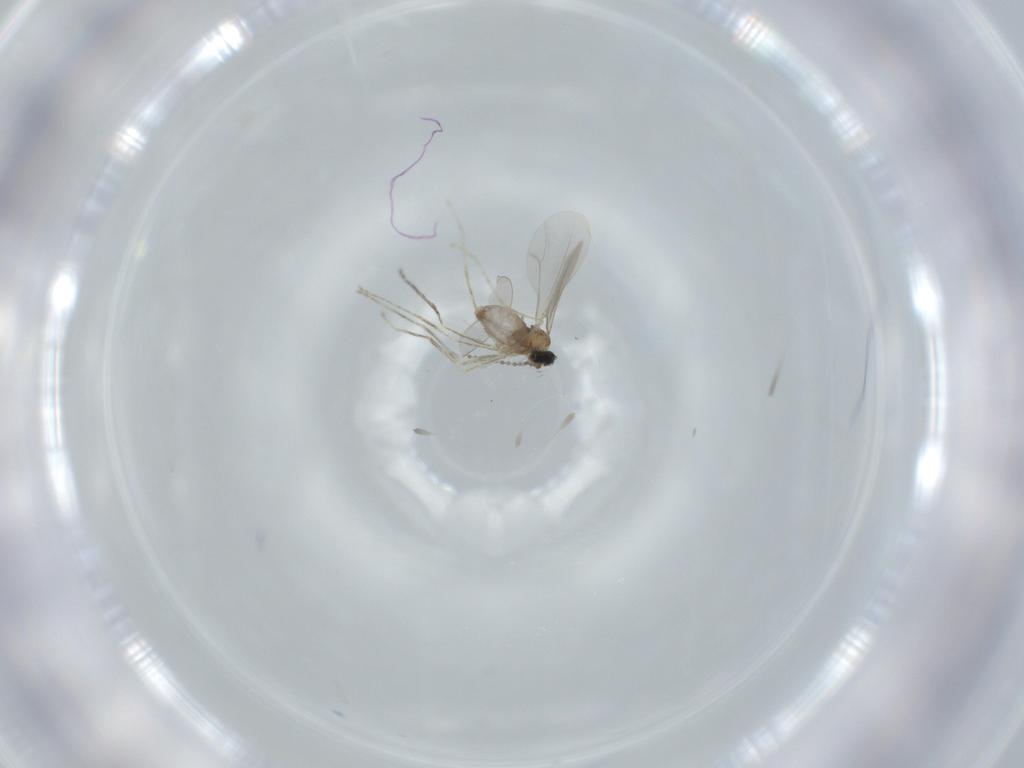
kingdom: Animalia
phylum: Arthropoda
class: Insecta
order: Diptera
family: Cecidomyiidae
